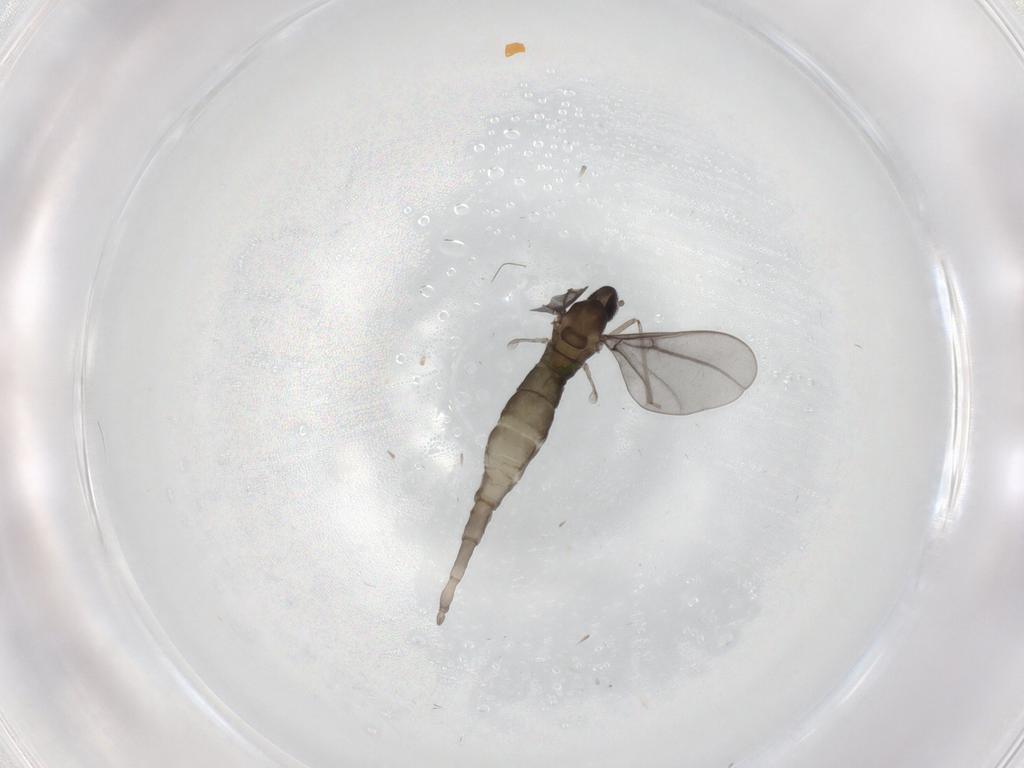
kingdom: Animalia
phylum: Arthropoda
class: Insecta
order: Diptera
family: Cecidomyiidae
